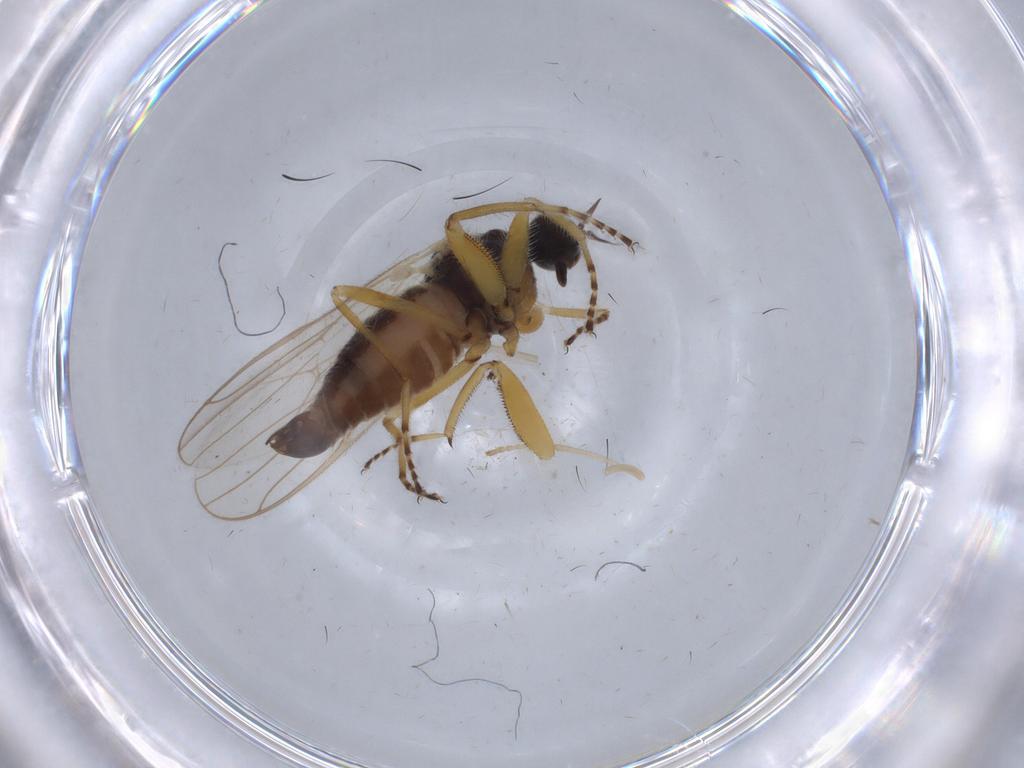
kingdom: Animalia
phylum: Arthropoda
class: Insecta
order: Diptera
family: Hybotidae
